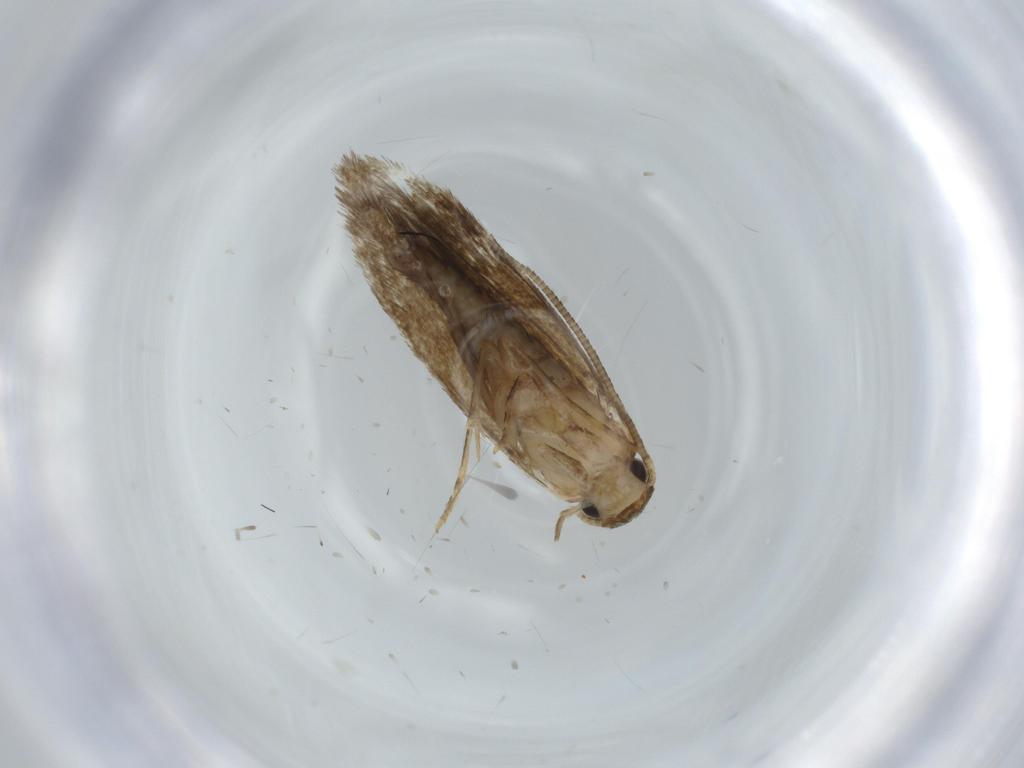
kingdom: Animalia
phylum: Arthropoda
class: Insecta
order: Lepidoptera
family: Tineidae
